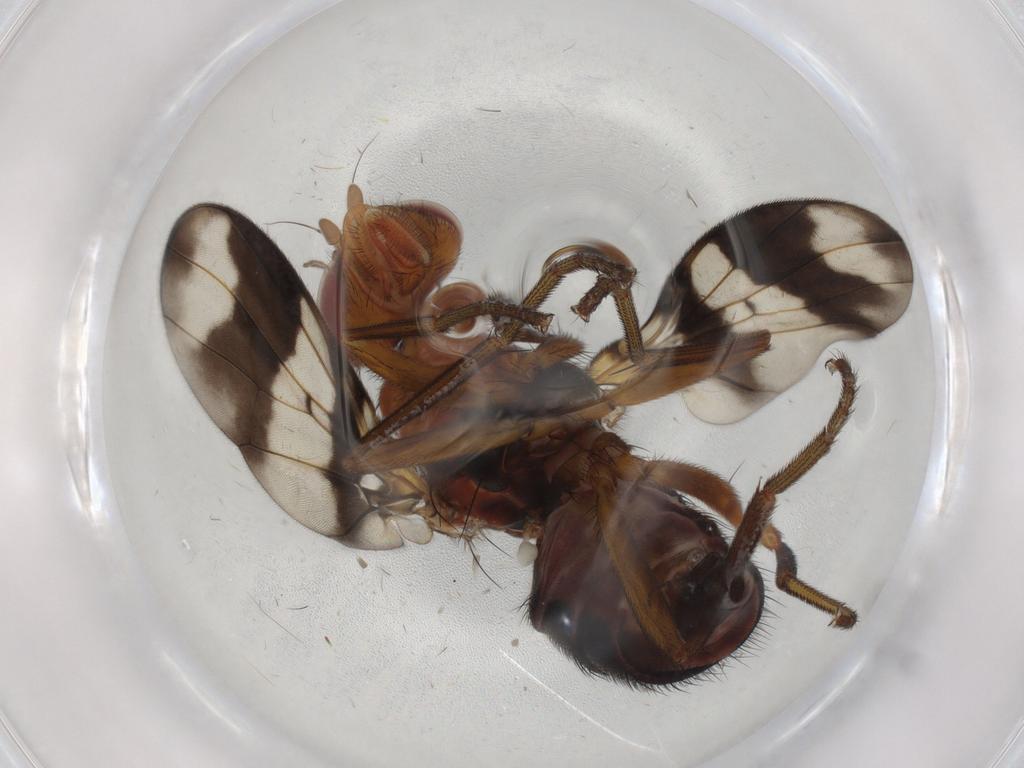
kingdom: Animalia
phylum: Arthropoda
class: Insecta
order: Diptera
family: Richardiidae
